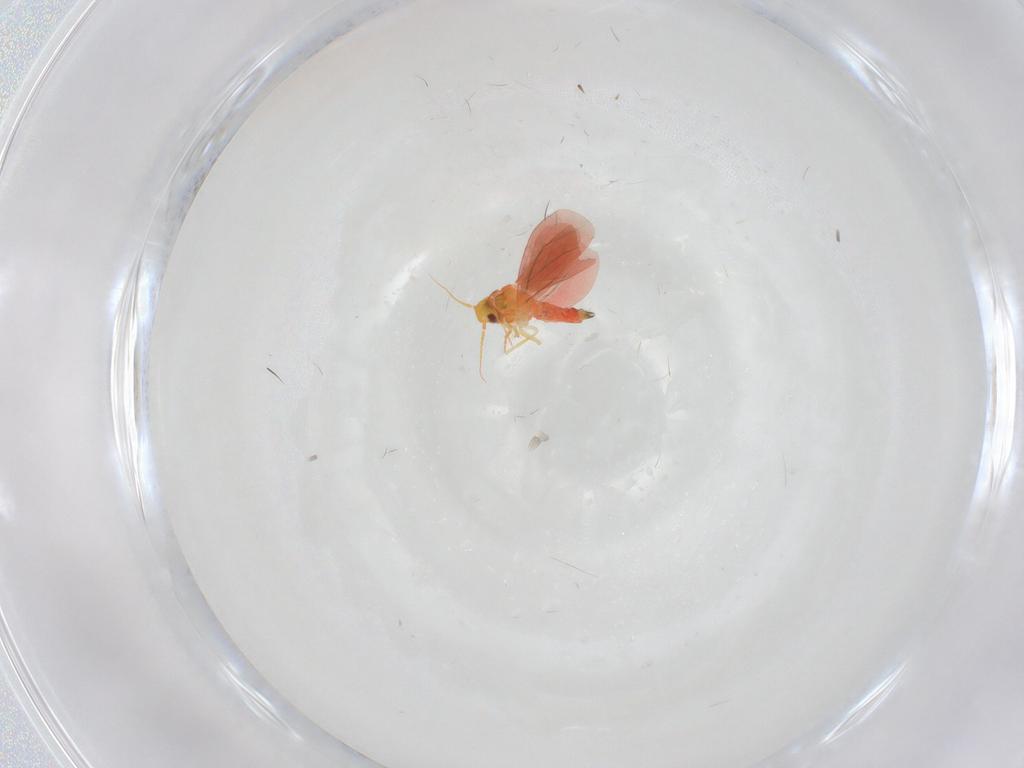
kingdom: Animalia
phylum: Arthropoda
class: Insecta
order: Hemiptera
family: Aleyrodidae
